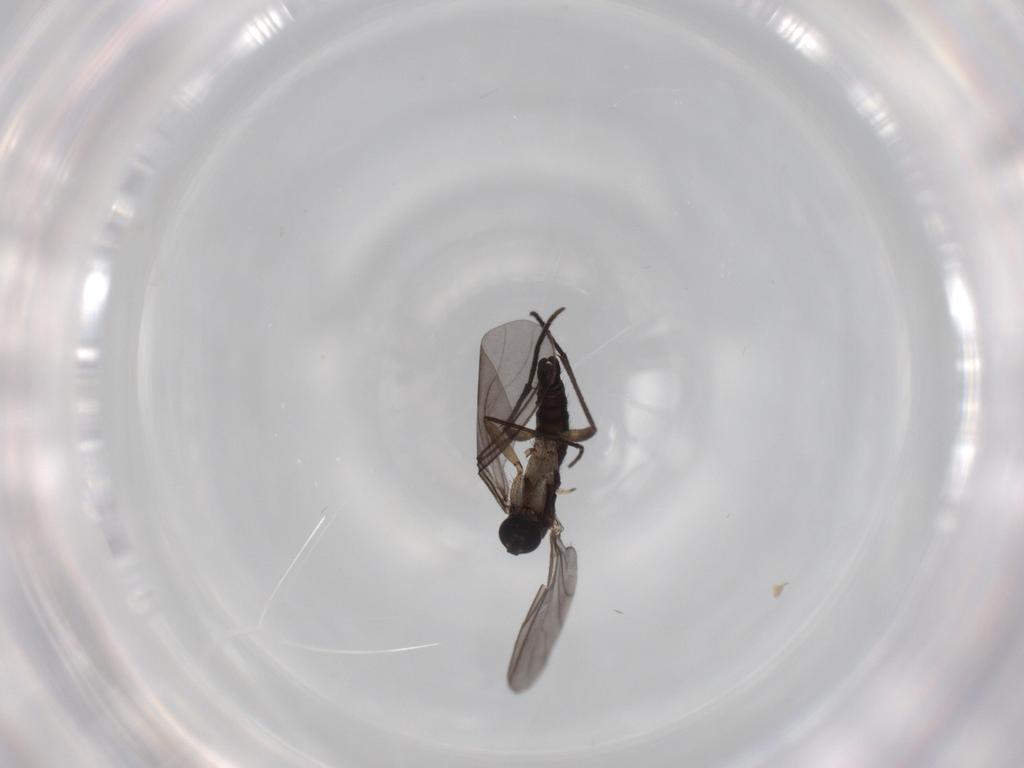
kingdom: Animalia
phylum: Arthropoda
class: Insecta
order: Diptera
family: Sciaridae
